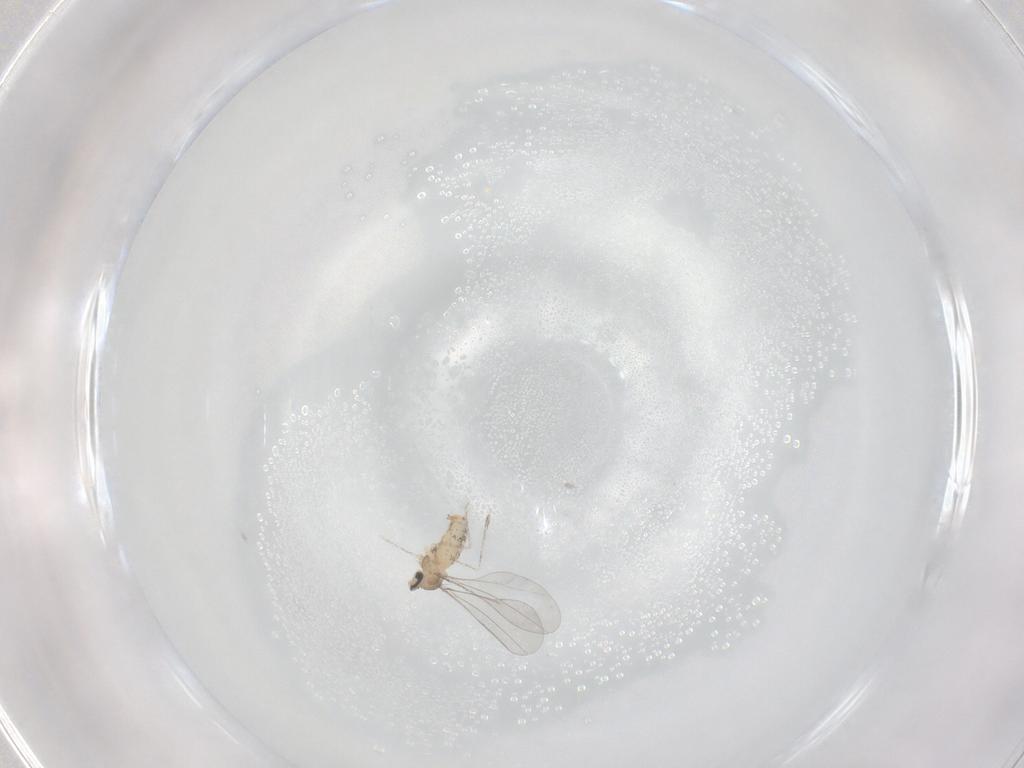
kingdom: Animalia
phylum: Arthropoda
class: Insecta
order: Diptera
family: Cecidomyiidae
